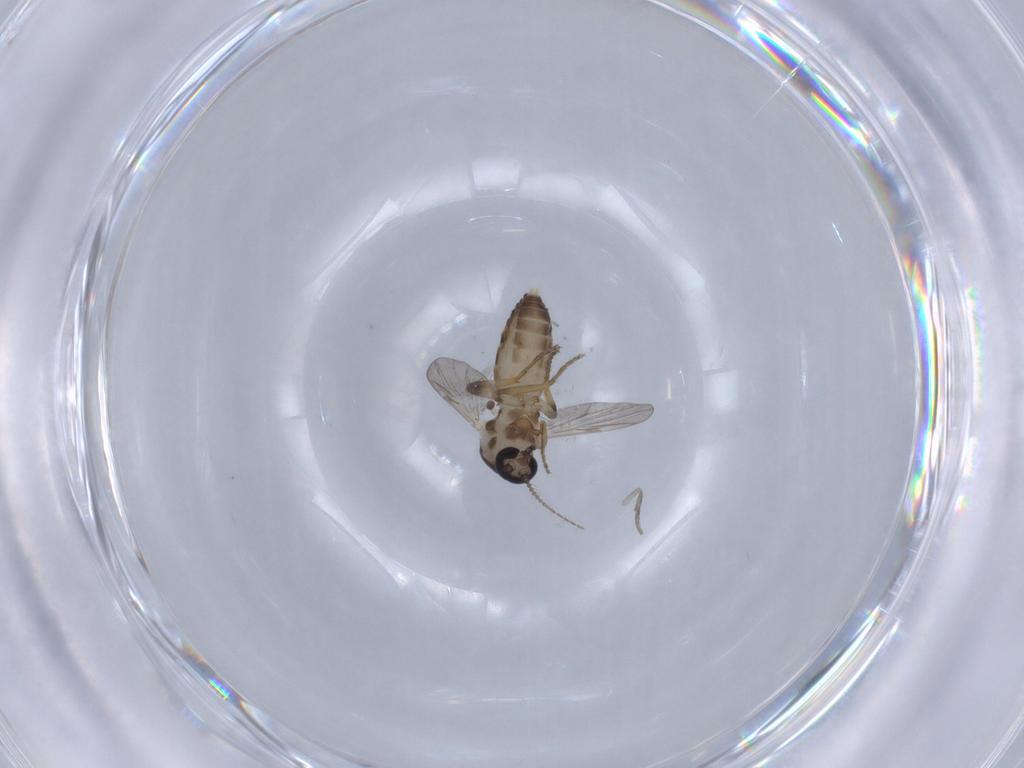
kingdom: Animalia
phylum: Arthropoda
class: Insecta
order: Diptera
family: Ceratopogonidae
